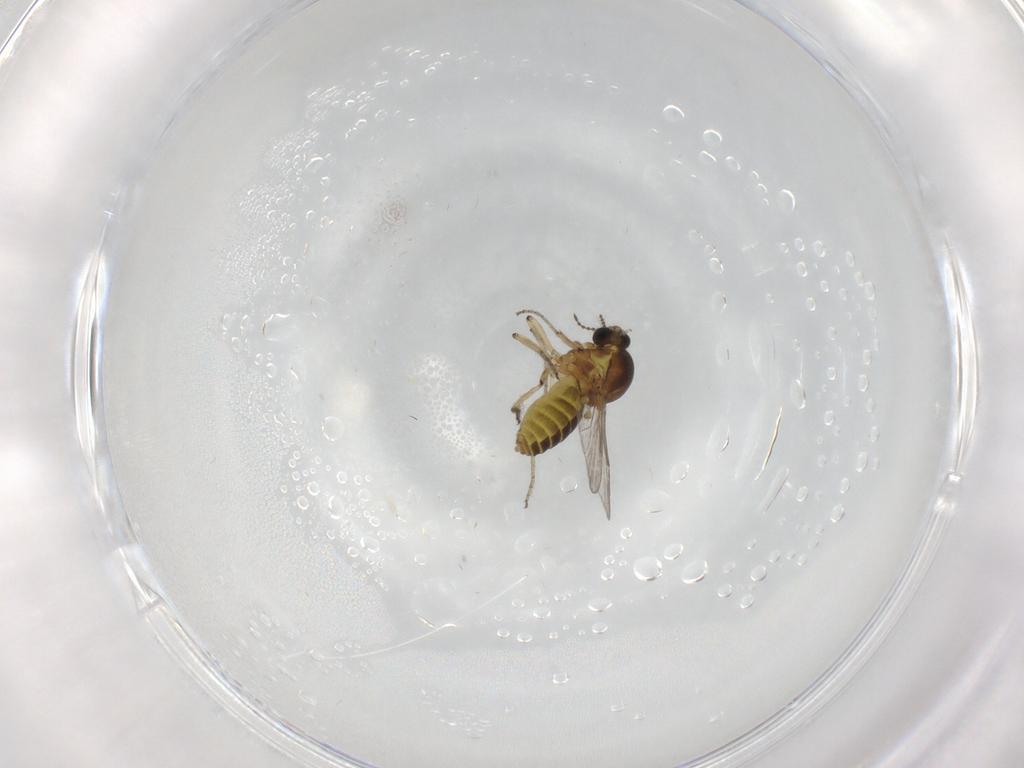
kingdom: Animalia
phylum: Arthropoda
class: Insecta
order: Diptera
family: Ceratopogonidae
